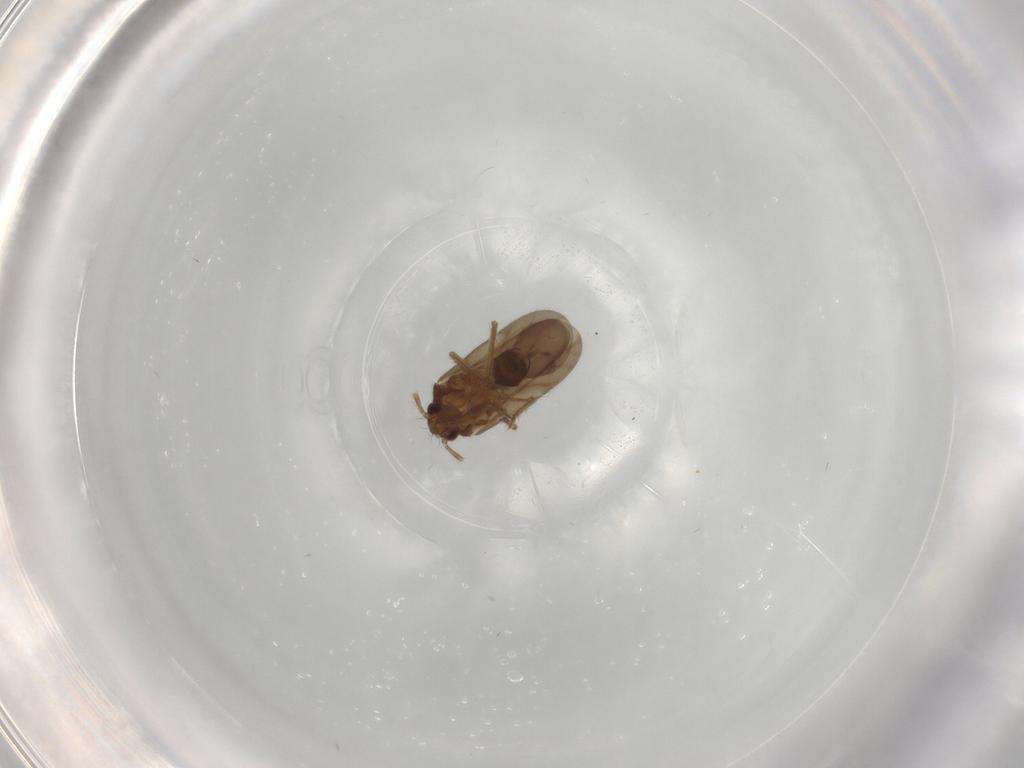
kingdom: Animalia
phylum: Arthropoda
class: Insecta
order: Hemiptera
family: Ceratocombidae
